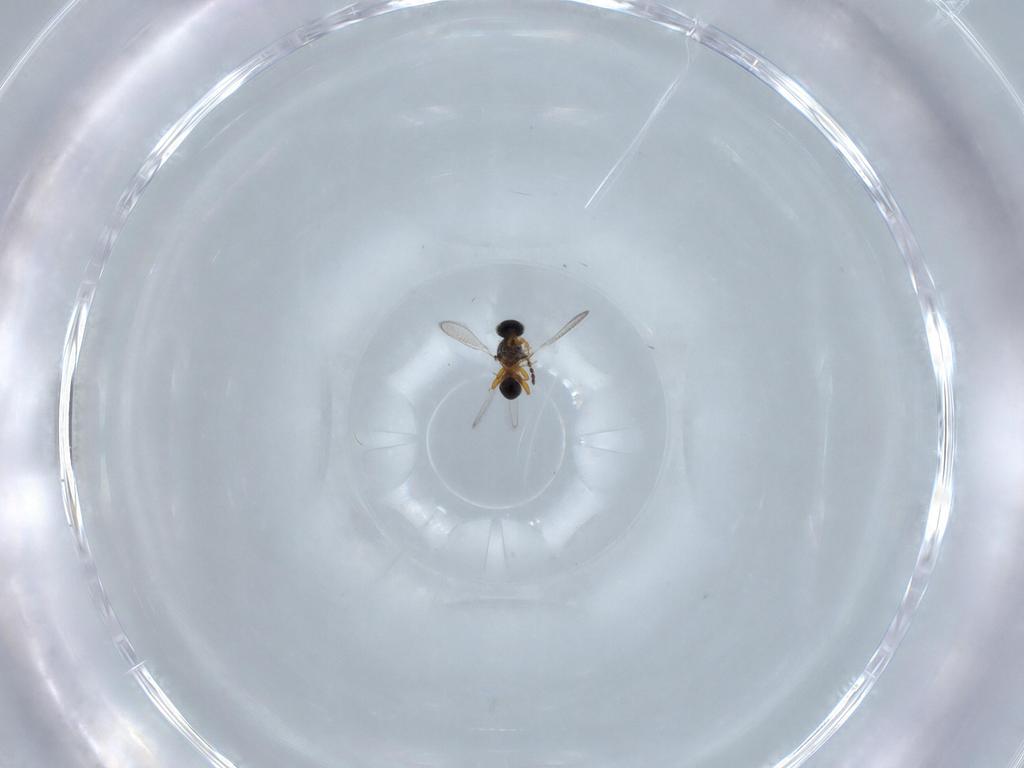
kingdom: Animalia
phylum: Arthropoda
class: Insecta
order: Hymenoptera
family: Platygastridae
